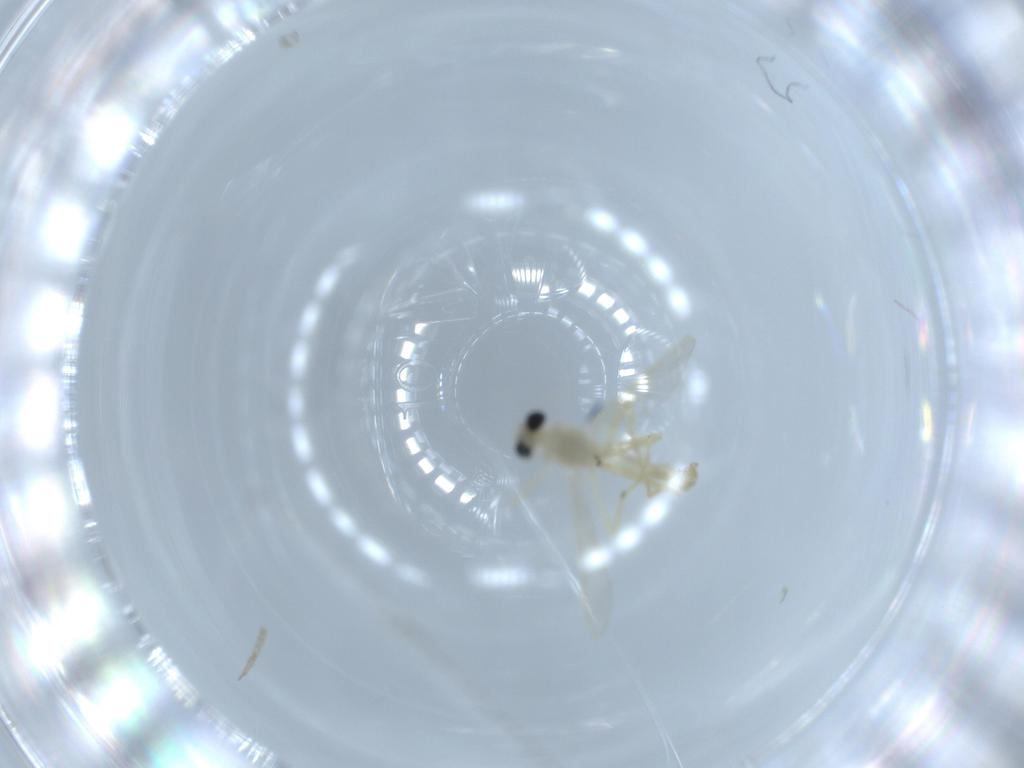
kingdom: Animalia
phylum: Arthropoda
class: Insecta
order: Diptera
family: Chironomidae
